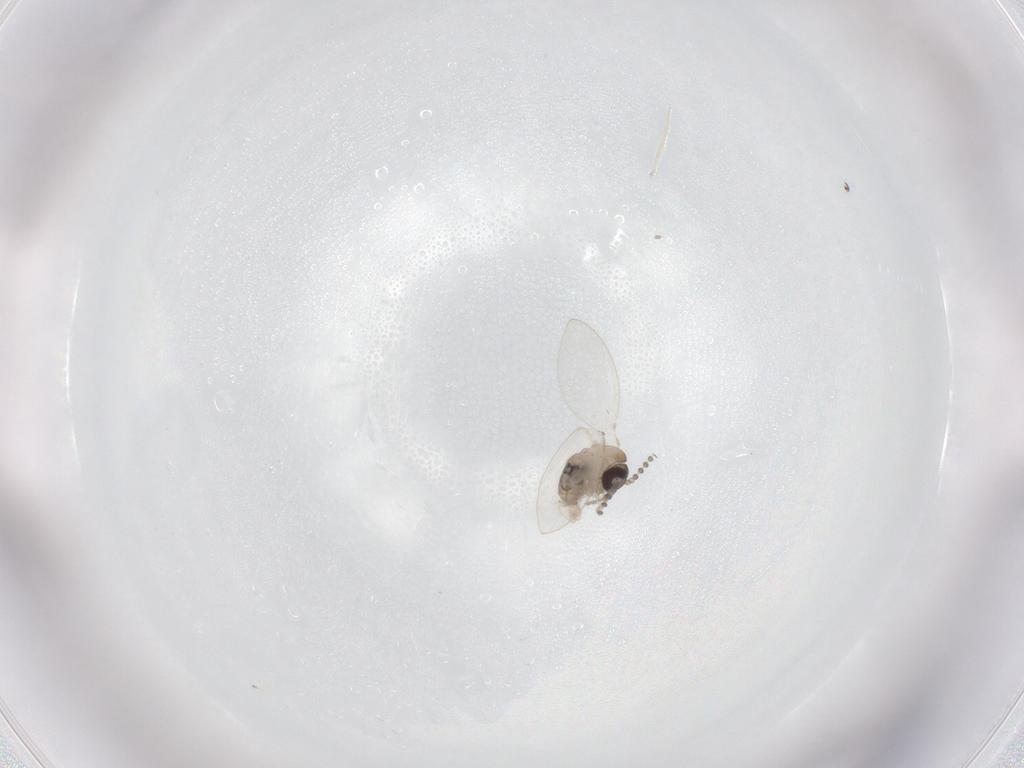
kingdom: Animalia
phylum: Arthropoda
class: Insecta
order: Diptera
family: Psychodidae
